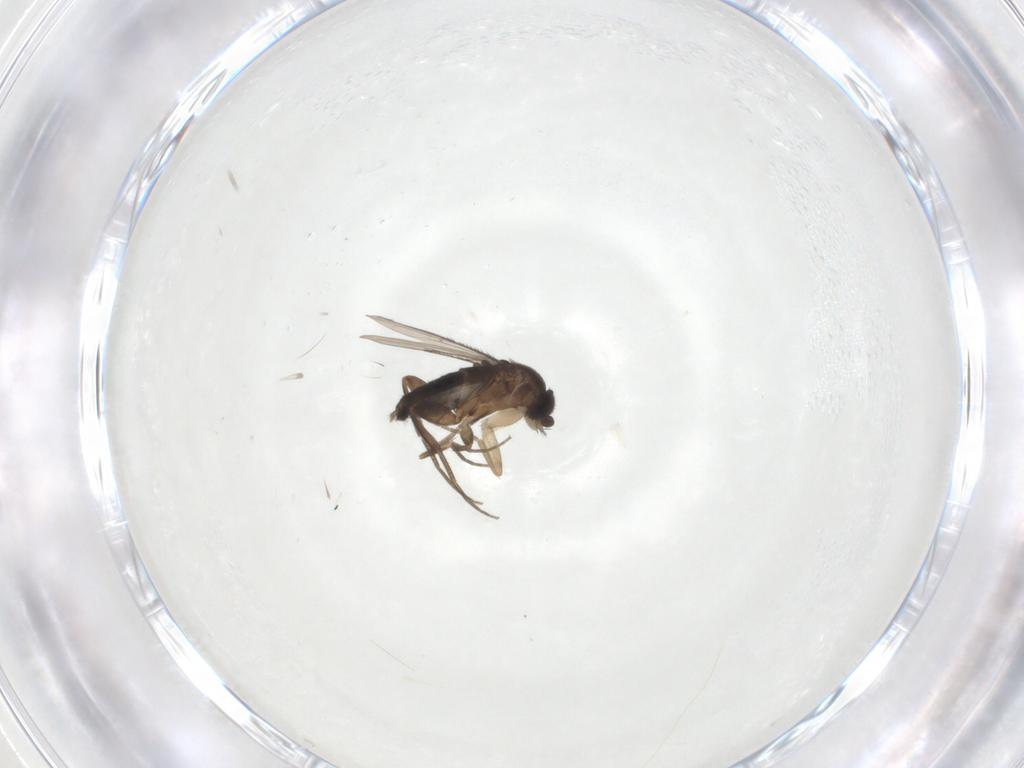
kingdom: Animalia
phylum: Arthropoda
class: Insecta
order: Diptera
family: Phoridae
